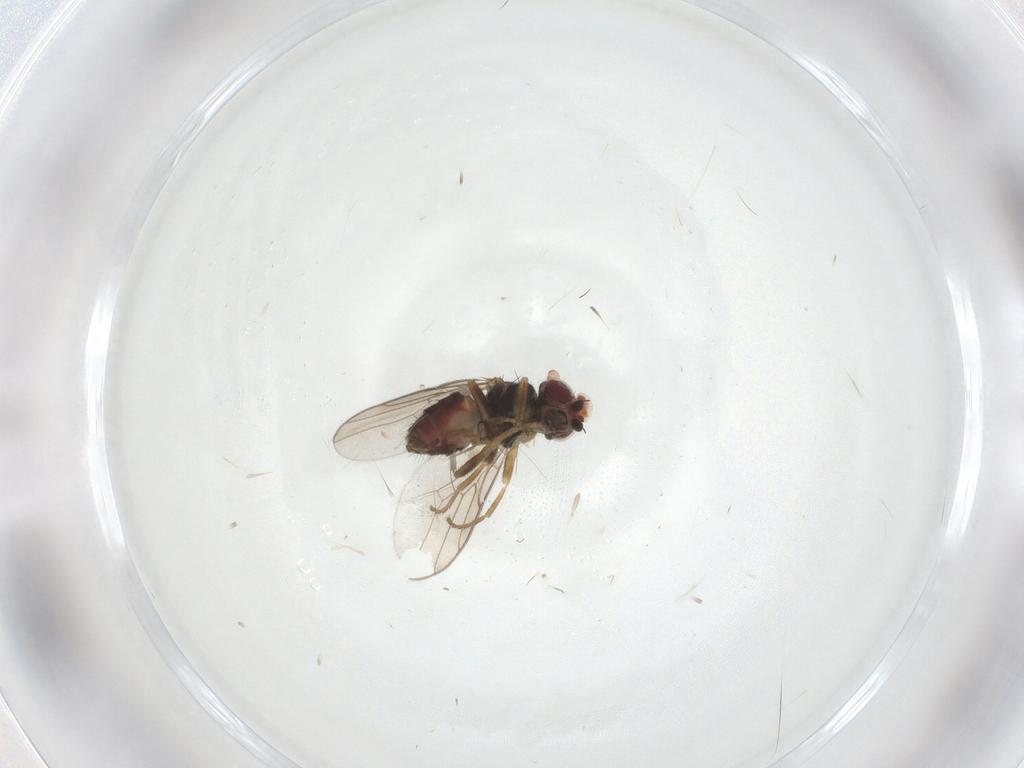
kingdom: Animalia
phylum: Arthropoda
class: Insecta
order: Diptera
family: Chloropidae
